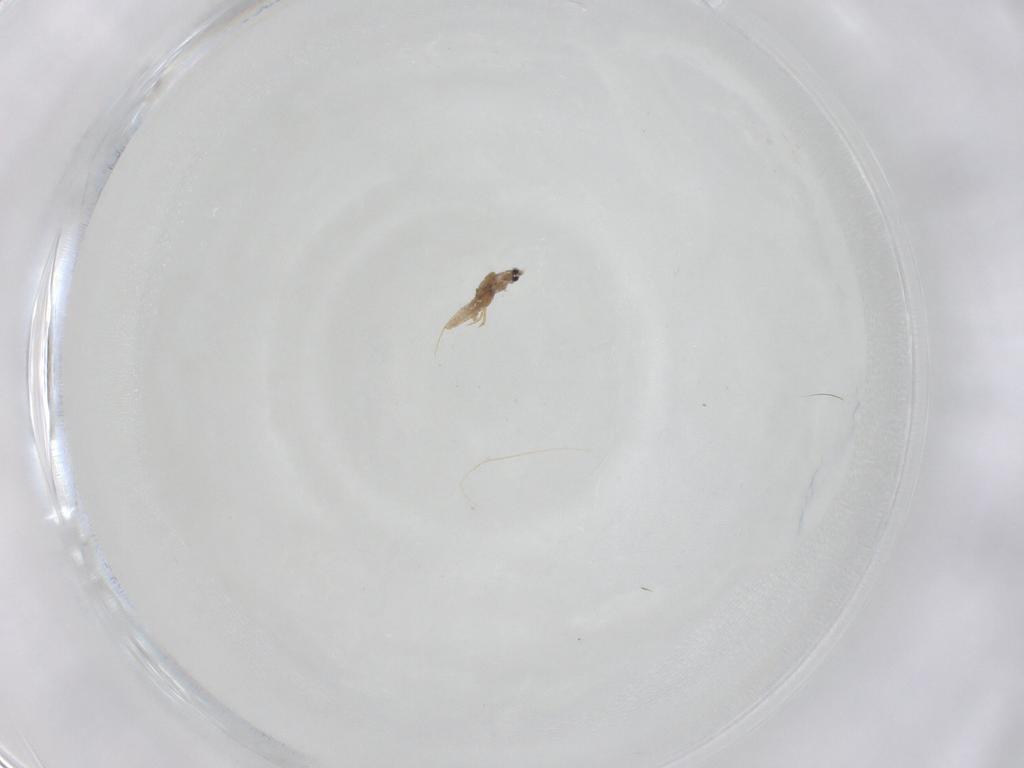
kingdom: Animalia
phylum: Arthropoda
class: Insecta
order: Hemiptera
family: Diaspididae
